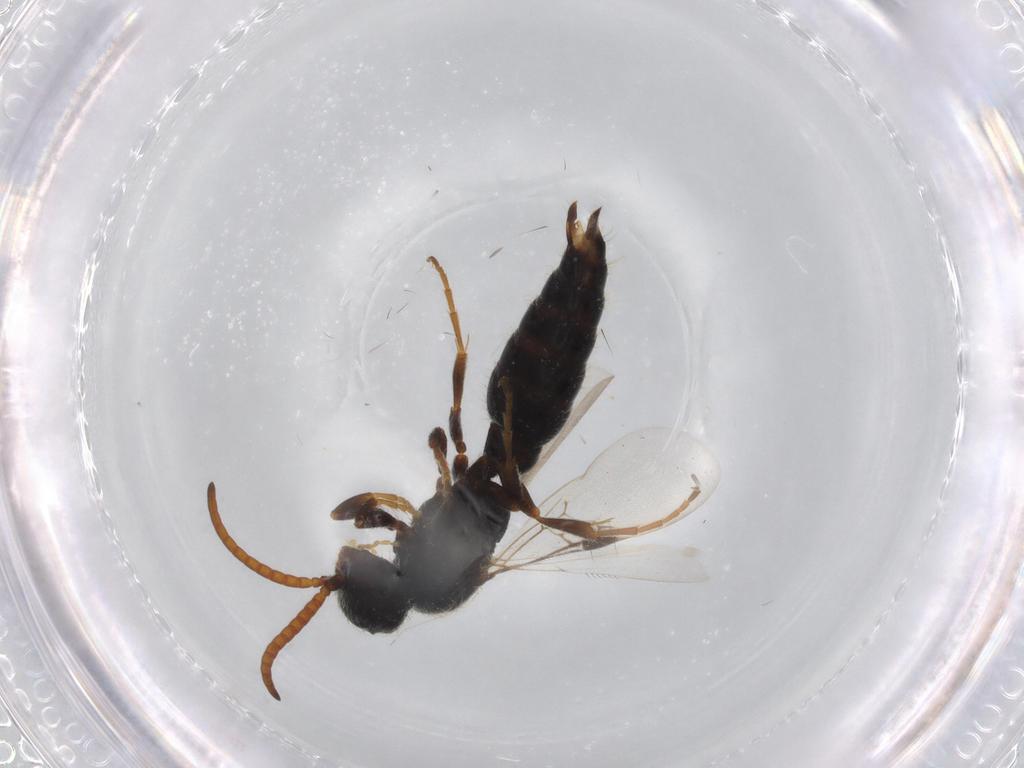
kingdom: Animalia
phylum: Arthropoda
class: Insecta
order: Hymenoptera
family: Tiphiidae
